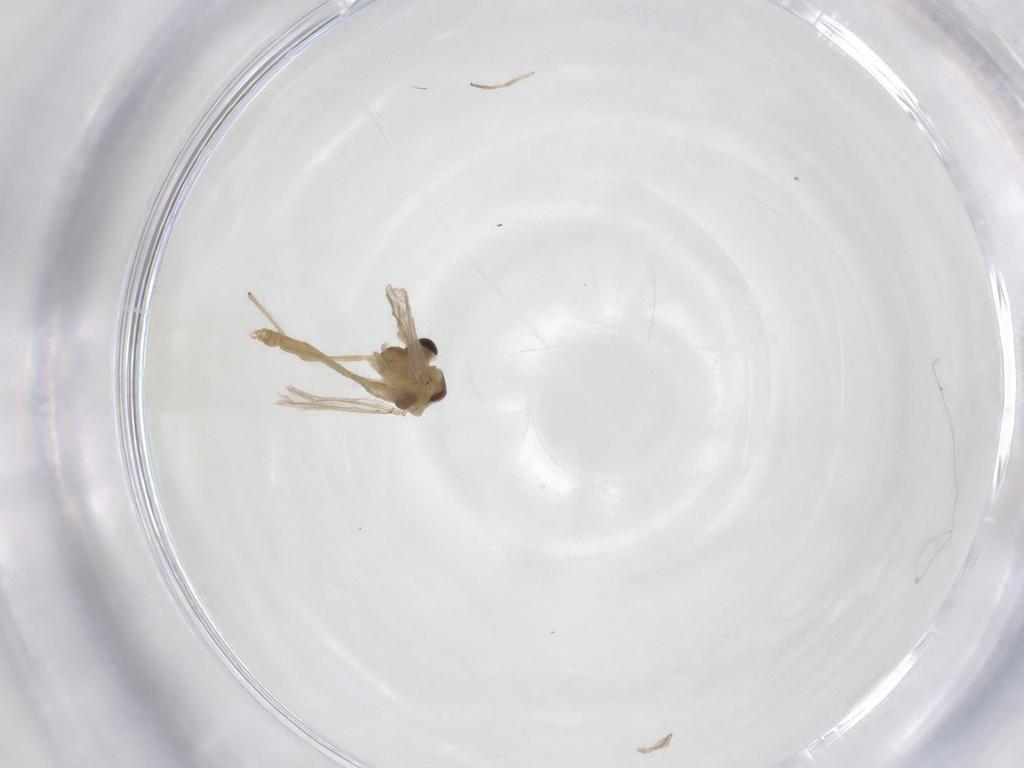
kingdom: Animalia
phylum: Arthropoda
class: Insecta
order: Diptera
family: Chironomidae
